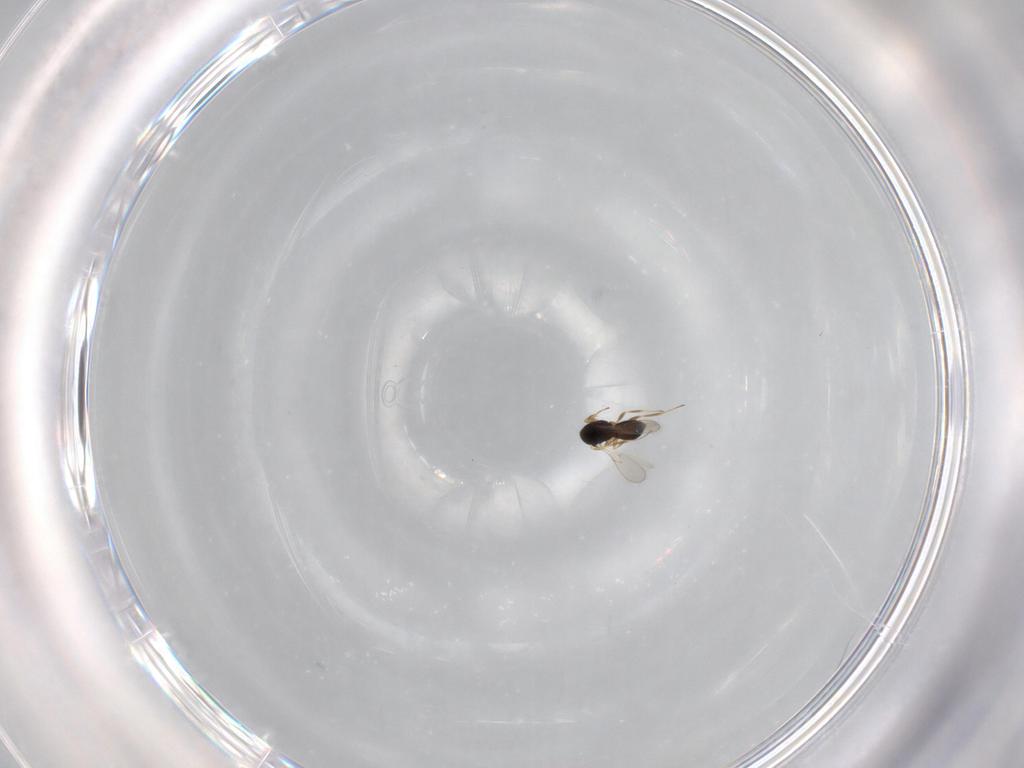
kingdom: Animalia
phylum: Arthropoda
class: Insecta
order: Hymenoptera
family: Scelionidae
